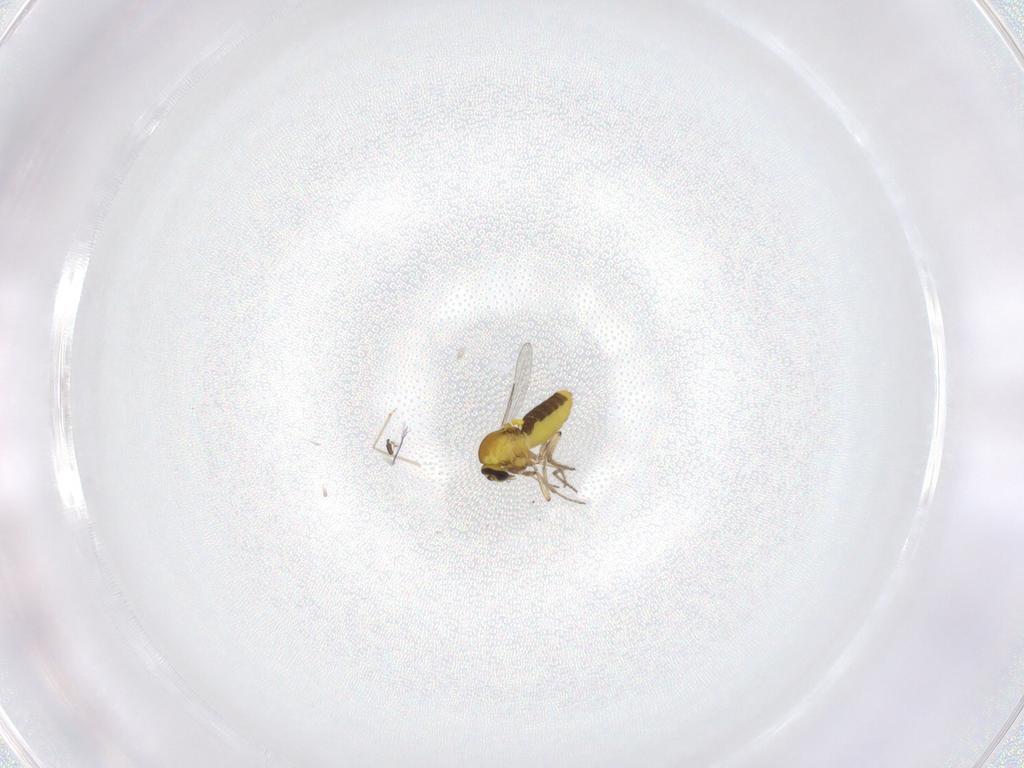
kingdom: Animalia
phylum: Arthropoda
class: Insecta
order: Diptera
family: Ceratopogonidae
